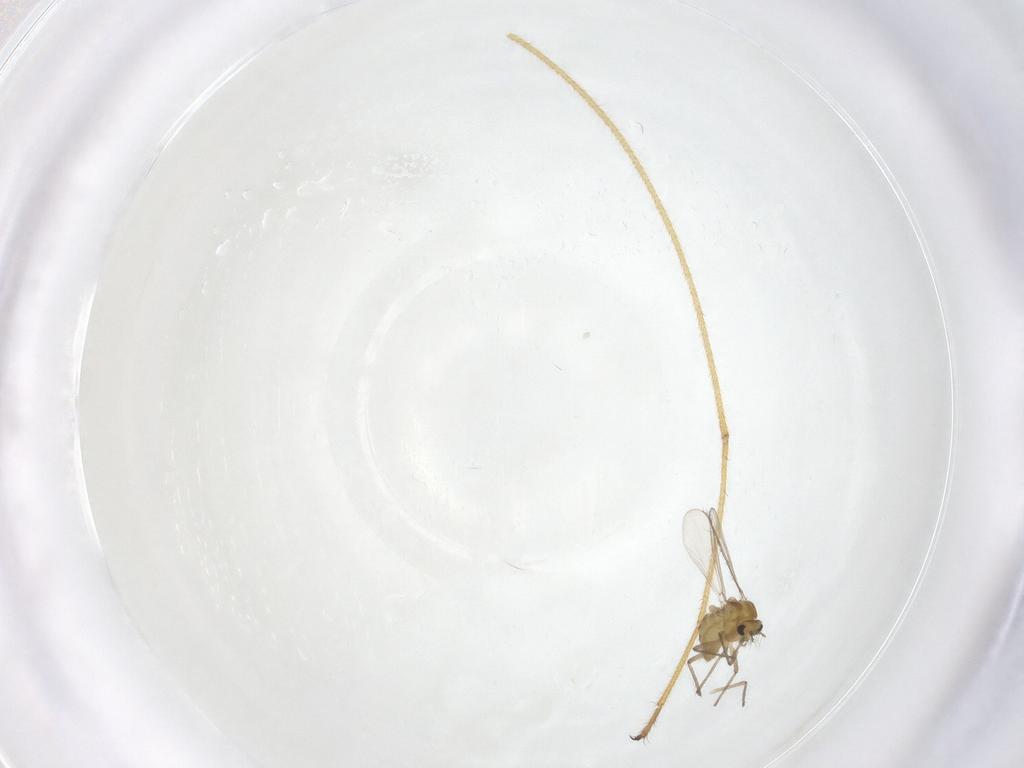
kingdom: Animalia
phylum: Arthropoda
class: Insecta
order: Diptera
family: Chironomidae
